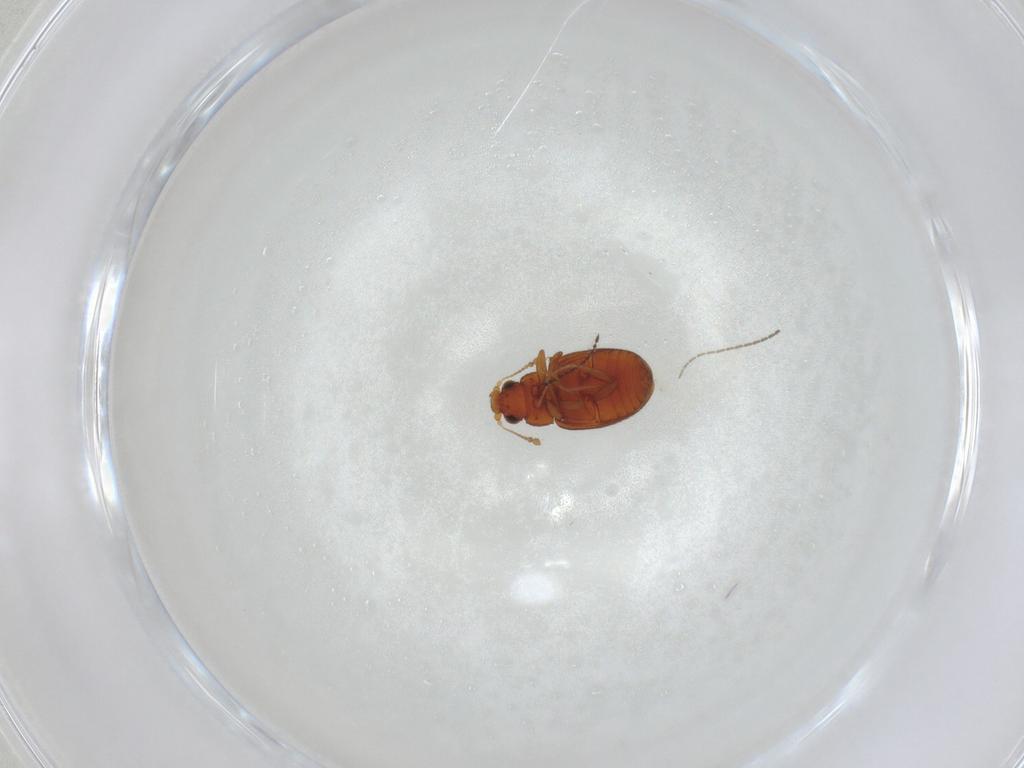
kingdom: Animalia
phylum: Arthropoda
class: Insecta
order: Coleoptera
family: Latridiidae
